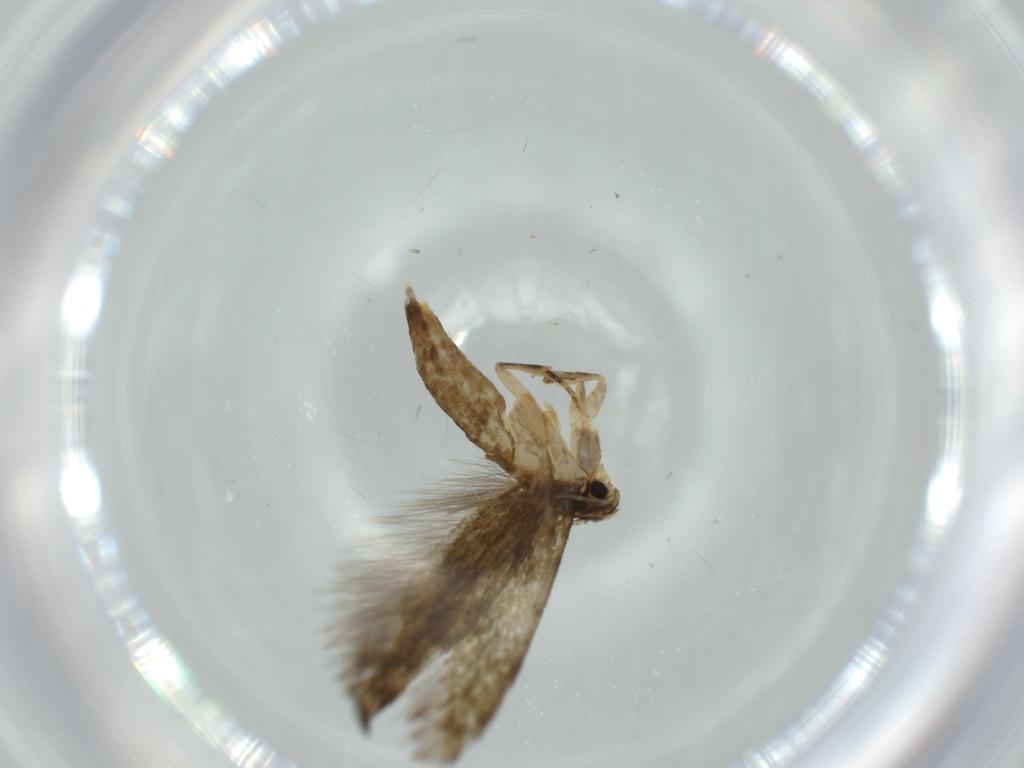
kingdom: Animalia
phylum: Arthropoda
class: Insecta
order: Lepidoptera
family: Tineidae
